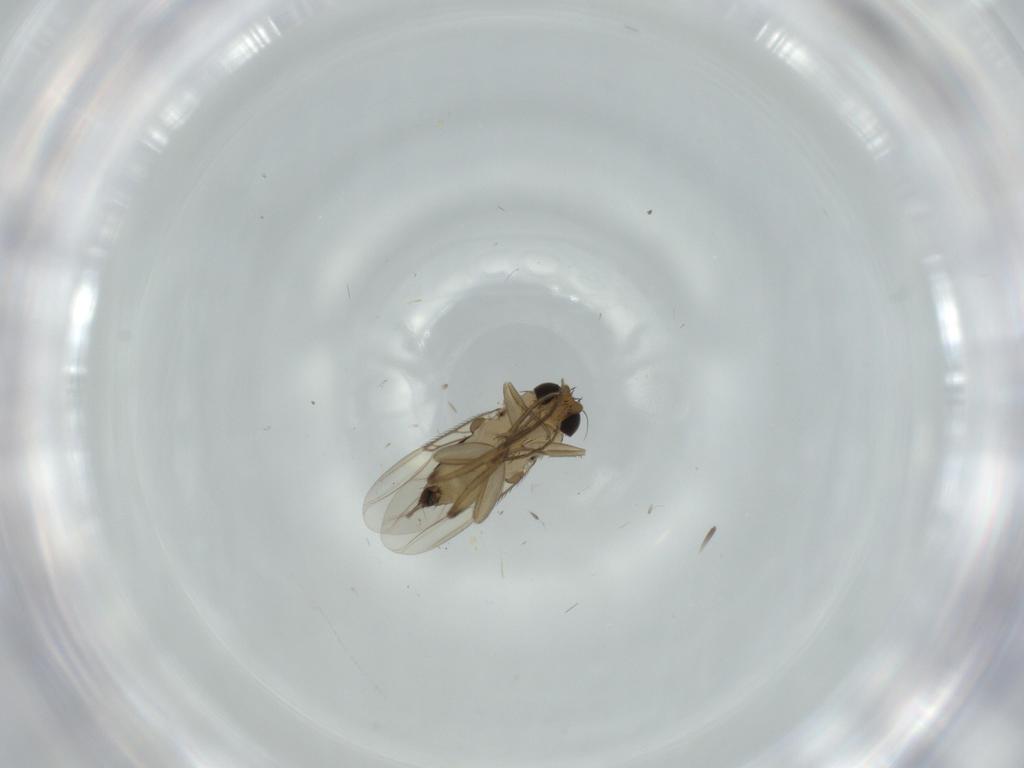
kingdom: Animalia
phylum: Arthropoda
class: Insecta
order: Diptera
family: Phoridae
